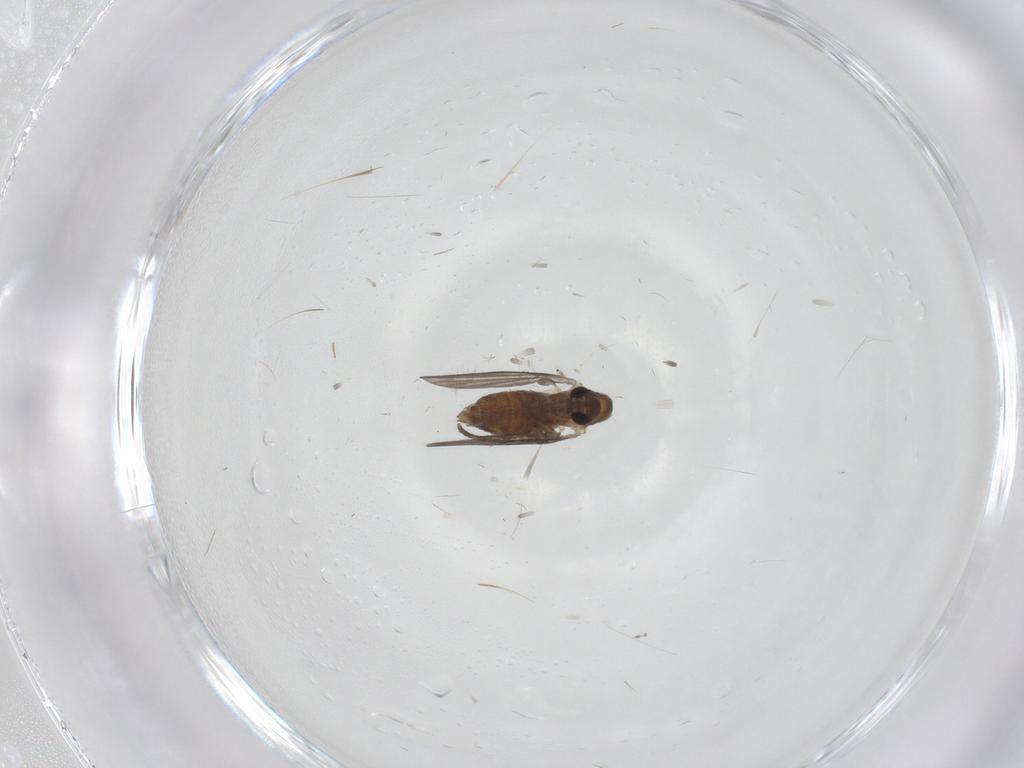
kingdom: Animalia
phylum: Arthropoda
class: Insecta
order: Diptera
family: Psychodidae
